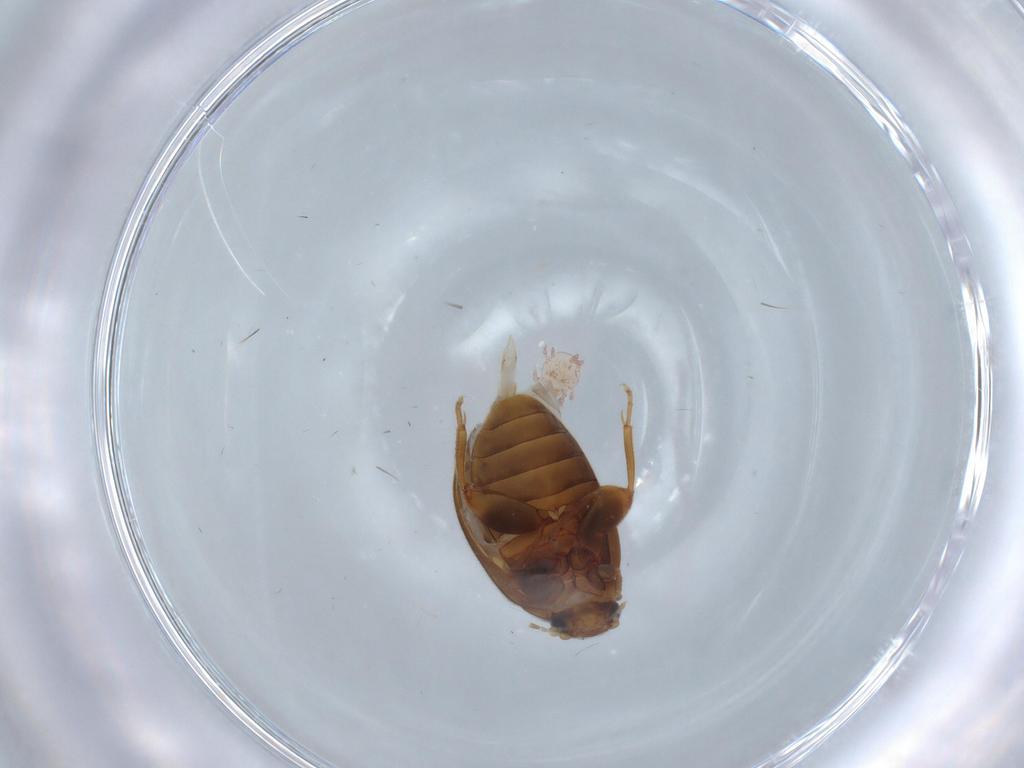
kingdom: Animalia
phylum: Arthropoda
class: Insecta
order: Coleoptera
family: Scirtidae
